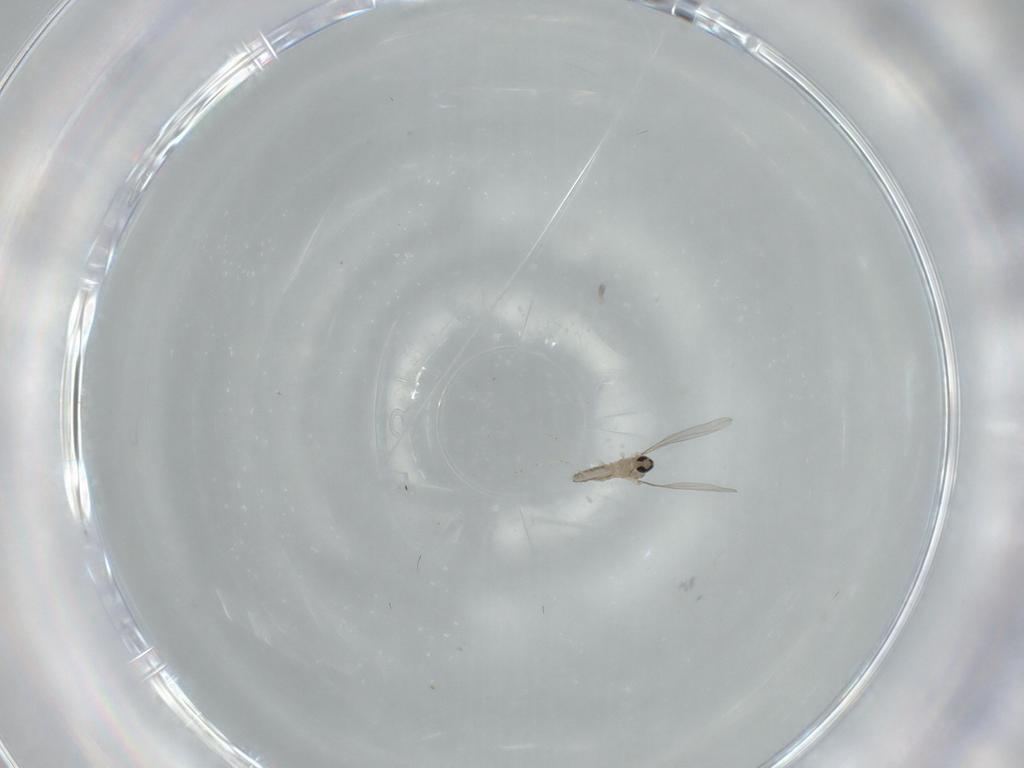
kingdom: Animalia
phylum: Arthropoda
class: Insecta
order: Diptera
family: Cecidomyiidae
